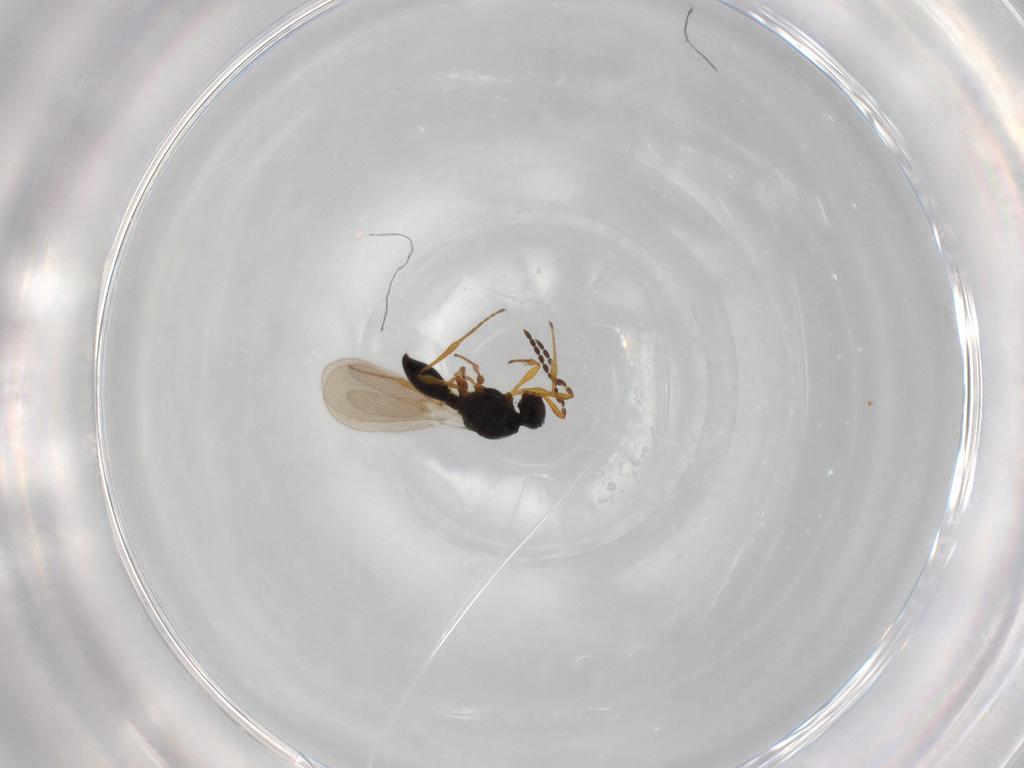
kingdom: Animalia
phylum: Arthropoda
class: Insecta
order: Diptera
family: Mythicomyiidae
